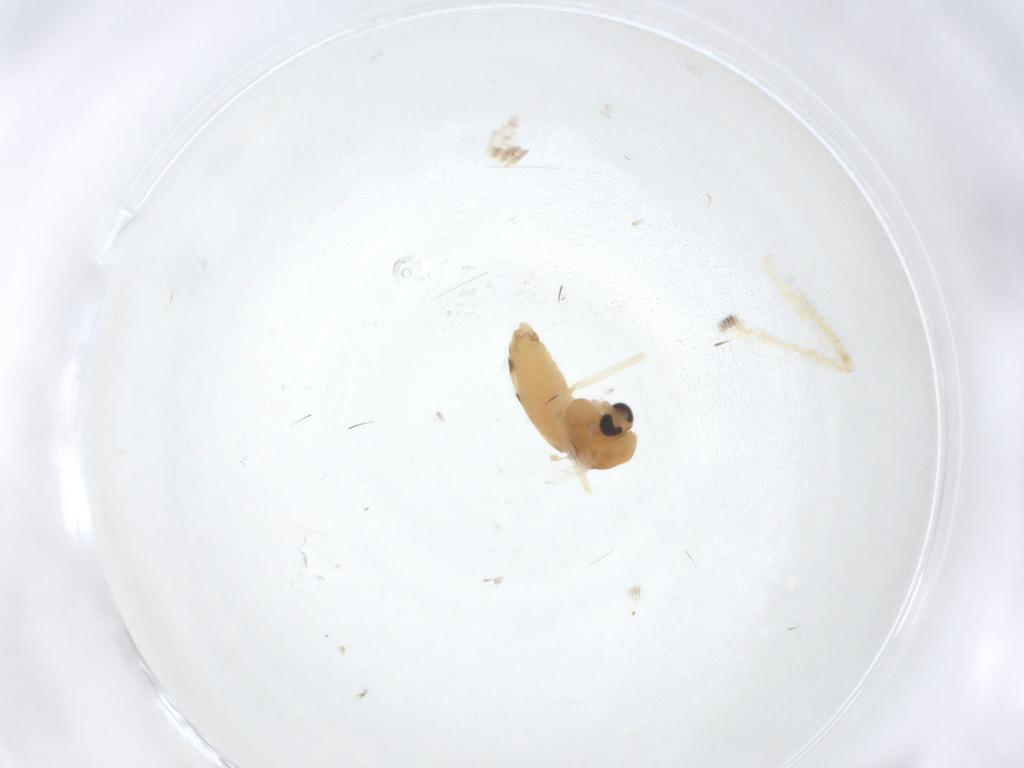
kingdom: Animalia
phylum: Arthropoda
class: Insecta
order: Diptera
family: Chironomidae
